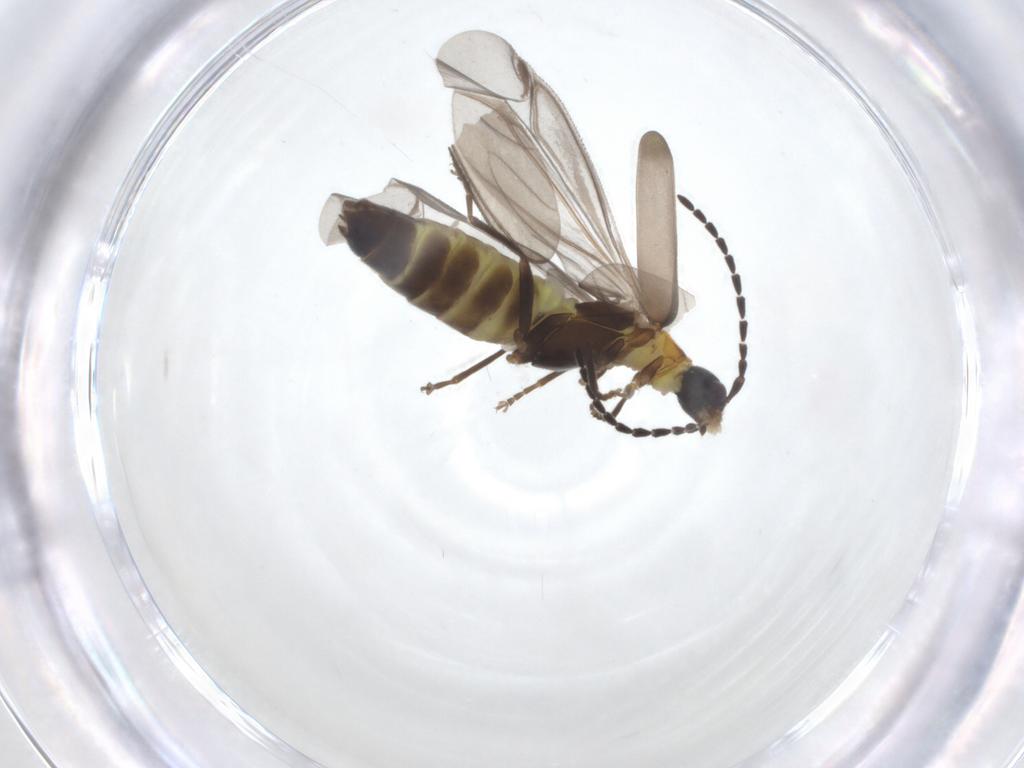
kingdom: Animalia
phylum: Arthropoda
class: Insecta
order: Coleoptera
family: Cantharidae
